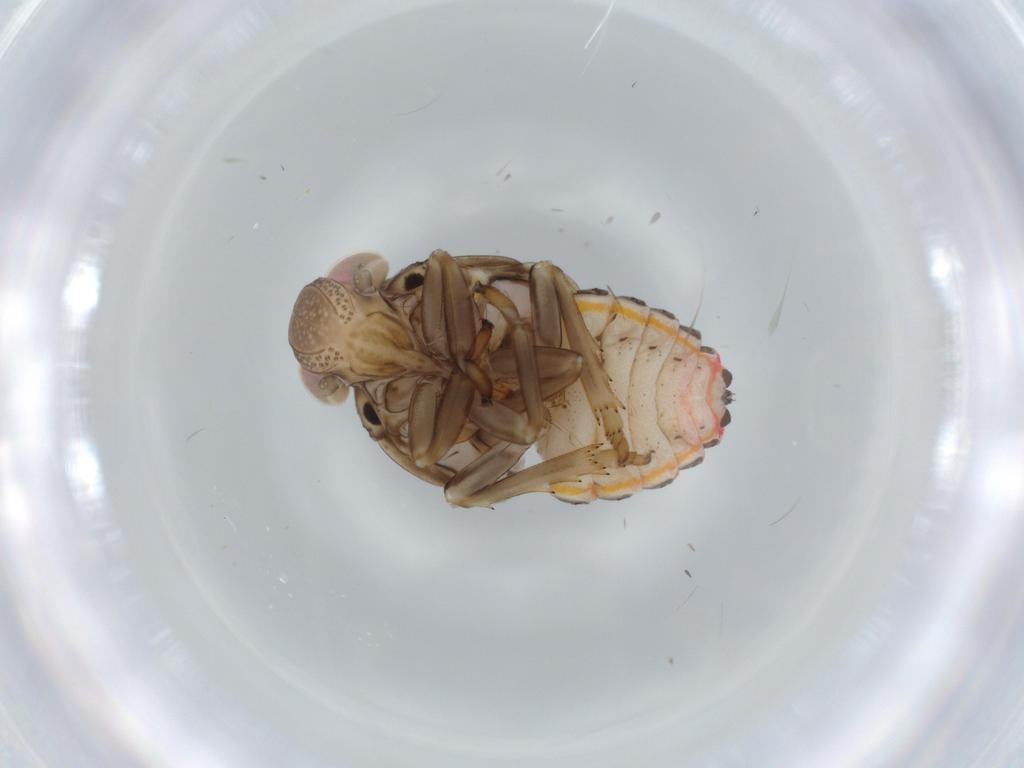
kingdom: Animalia
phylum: Arthropoda
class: Insecta
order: Hemiptera
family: Issidae
